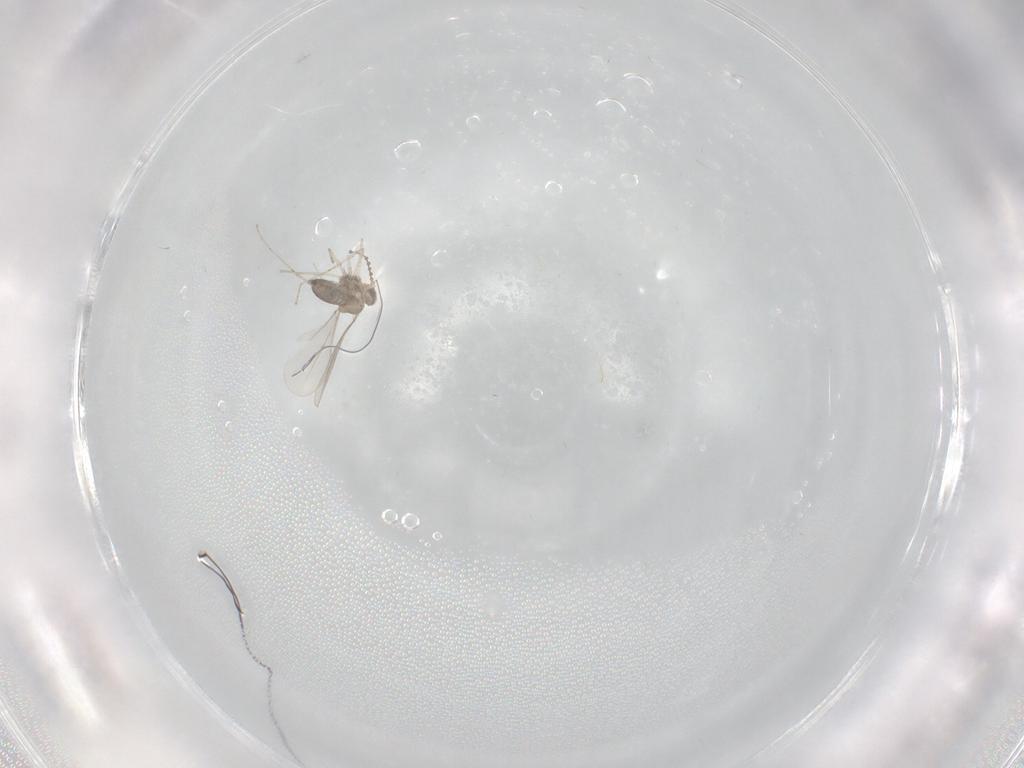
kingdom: Animalia
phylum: Arthropoda
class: Insecta
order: Diptera
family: Cecidomyiidae
